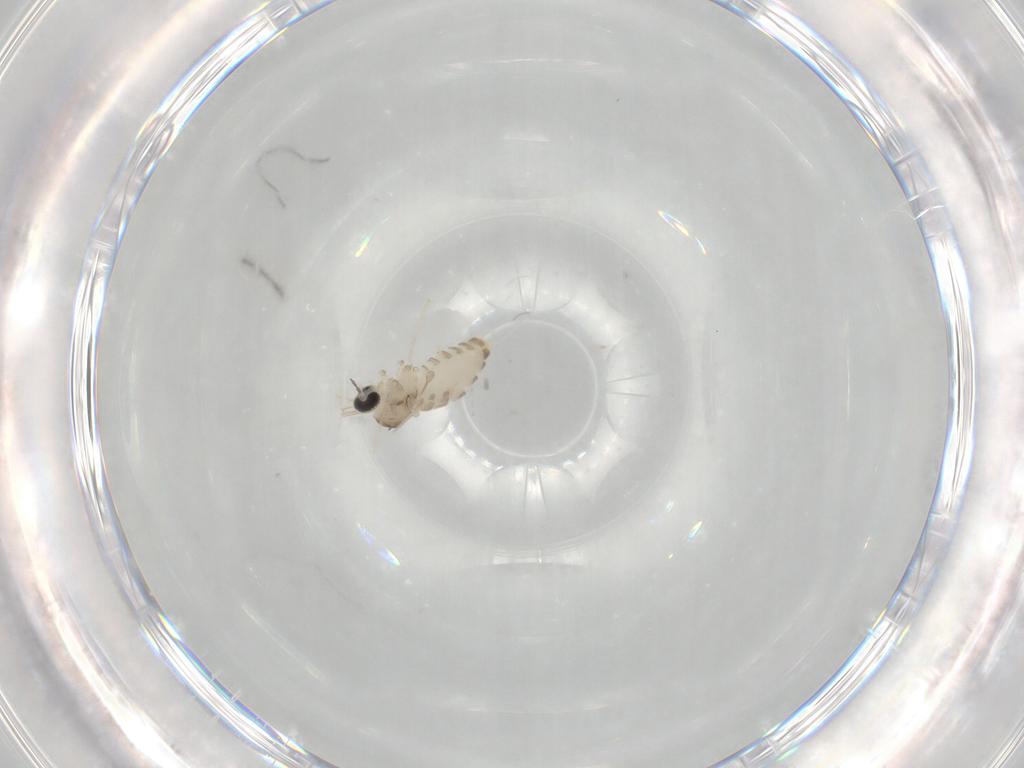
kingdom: Animalia
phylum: Arthropoda
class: Insecta
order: Diptera
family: Cecidomyiidae
